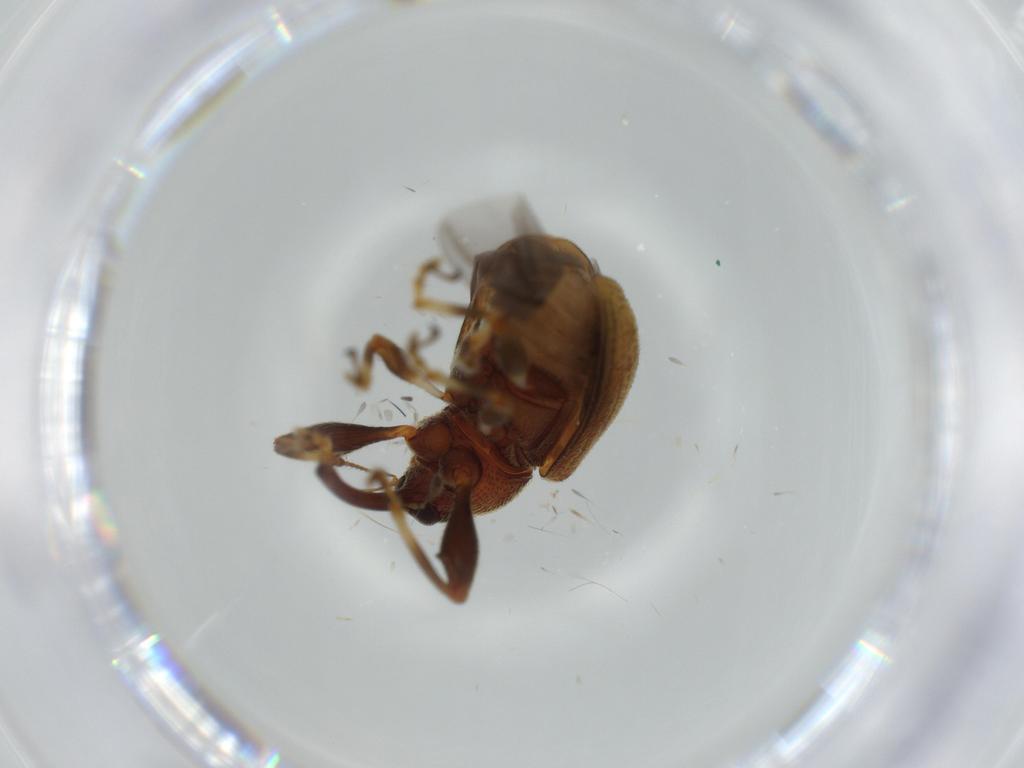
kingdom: Animalia
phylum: Arthropoda
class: Insecta
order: Coleoptera
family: Curculionidae
